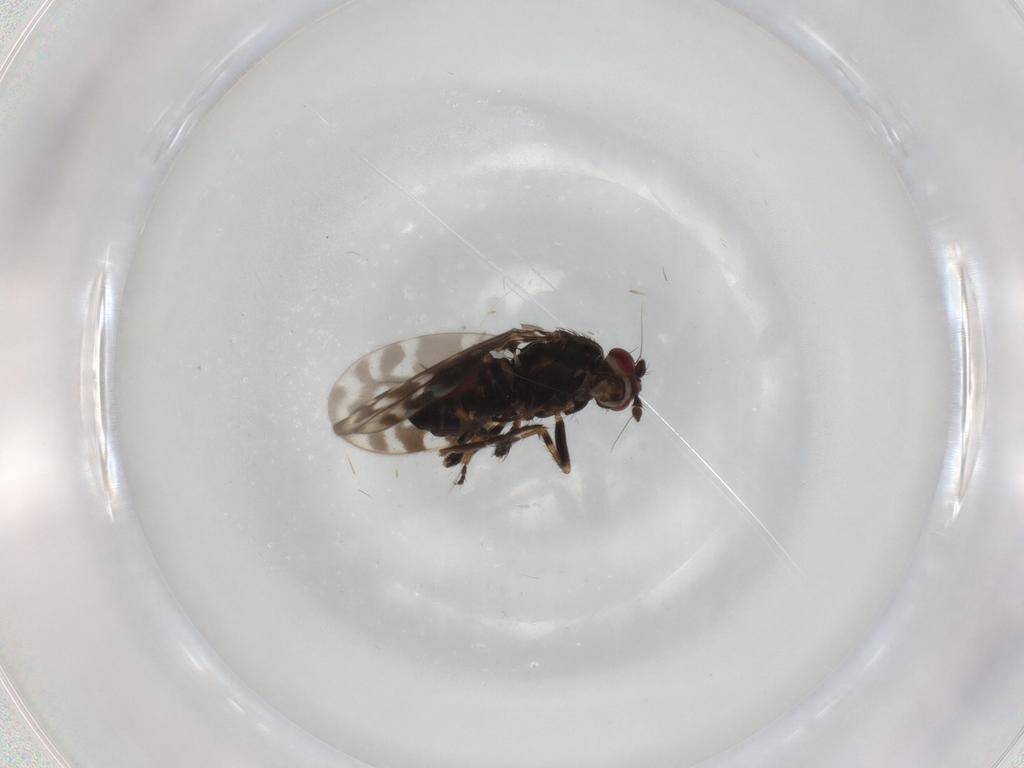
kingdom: Animalia
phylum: Arthropoda
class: Insecta
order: Diptera
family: Sphaeroceridae
